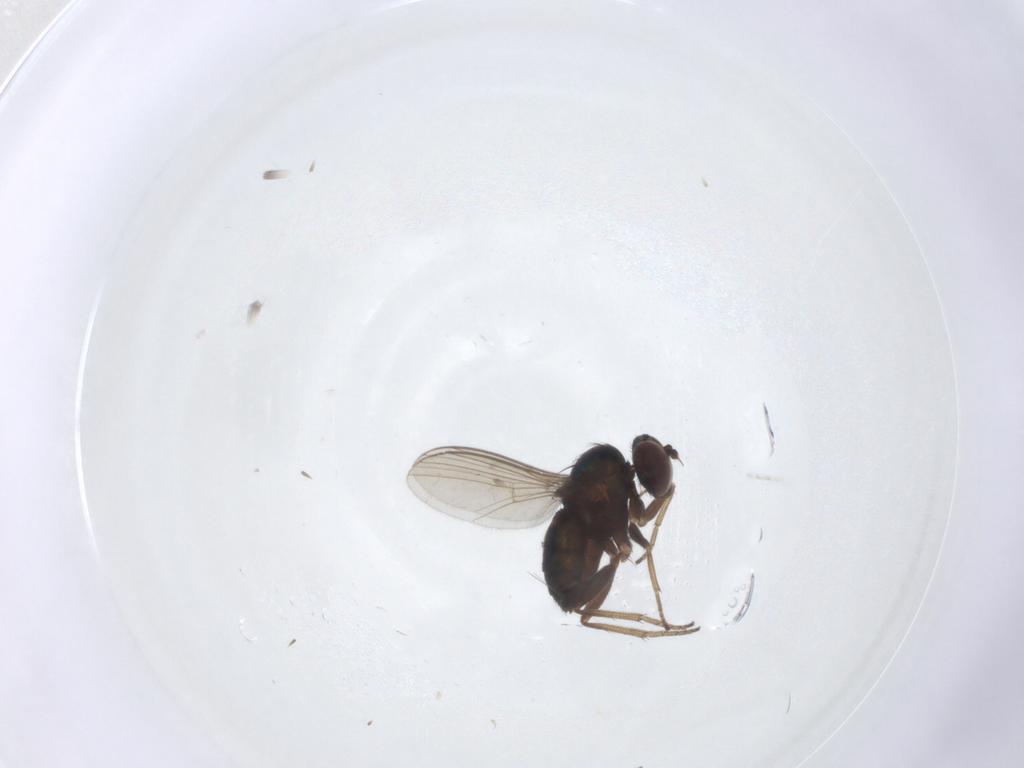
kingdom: Animalia
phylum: Arthropoda
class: Insecta
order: Diptera
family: Dolichopodidae
